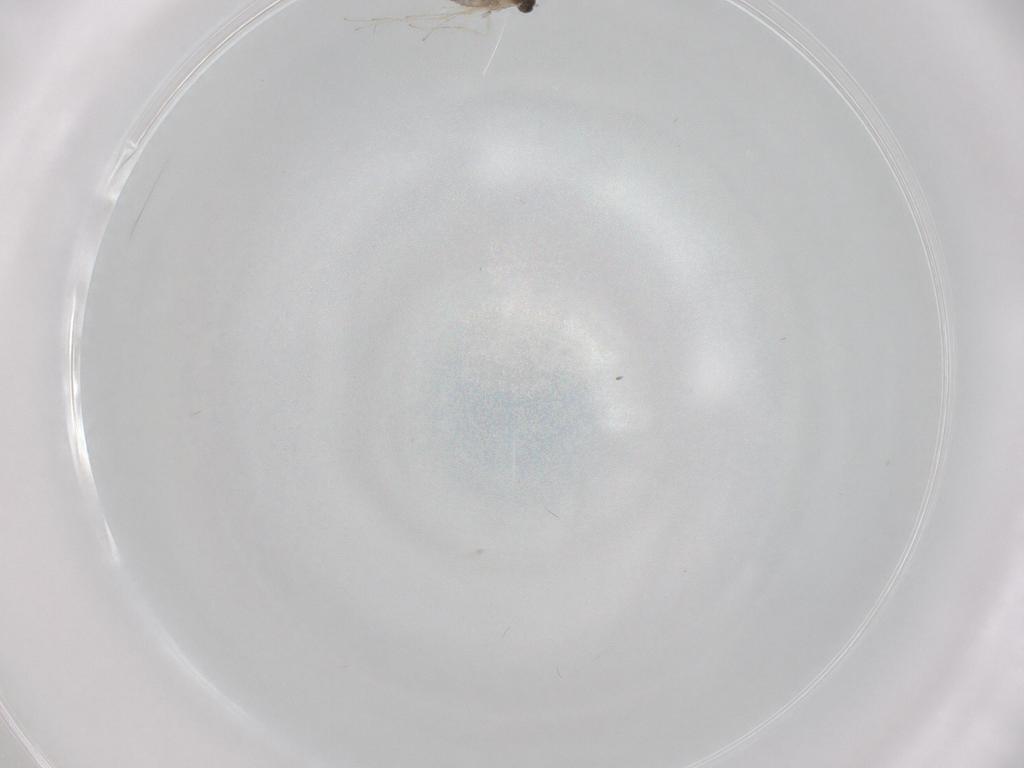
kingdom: Animalia
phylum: Arthropoda
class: Insecta
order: Diptera
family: Cecidomyiidae
